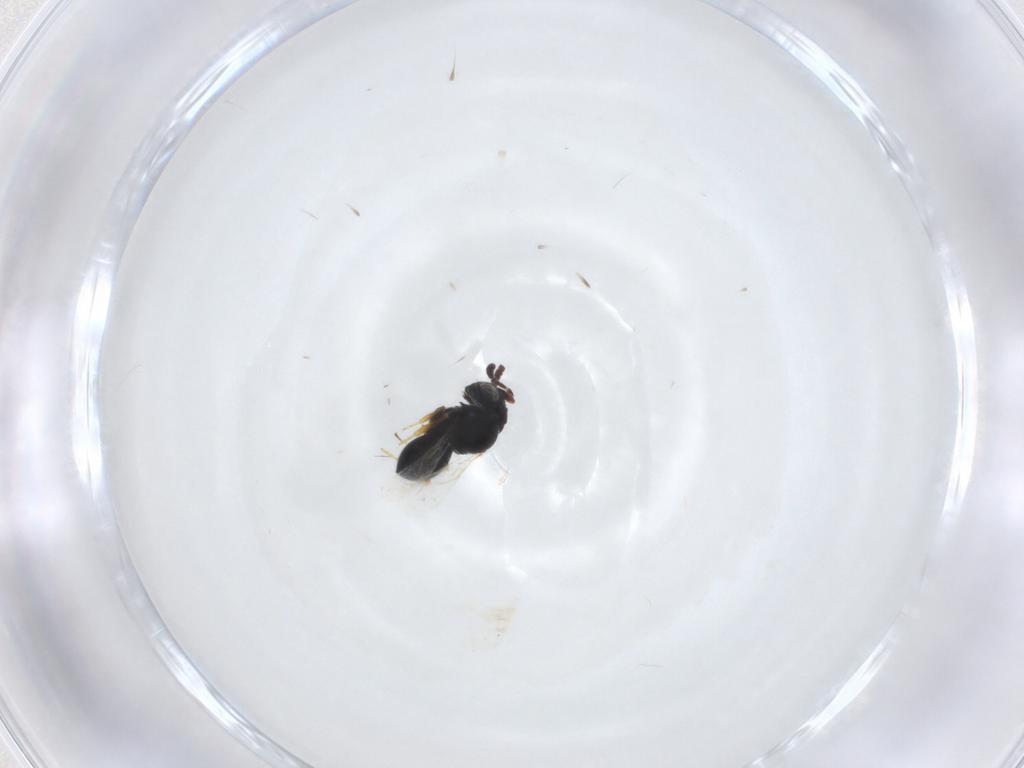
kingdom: Animalia
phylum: Arthropoda
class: Insecta
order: Hymenoptera
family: Scelionidae
